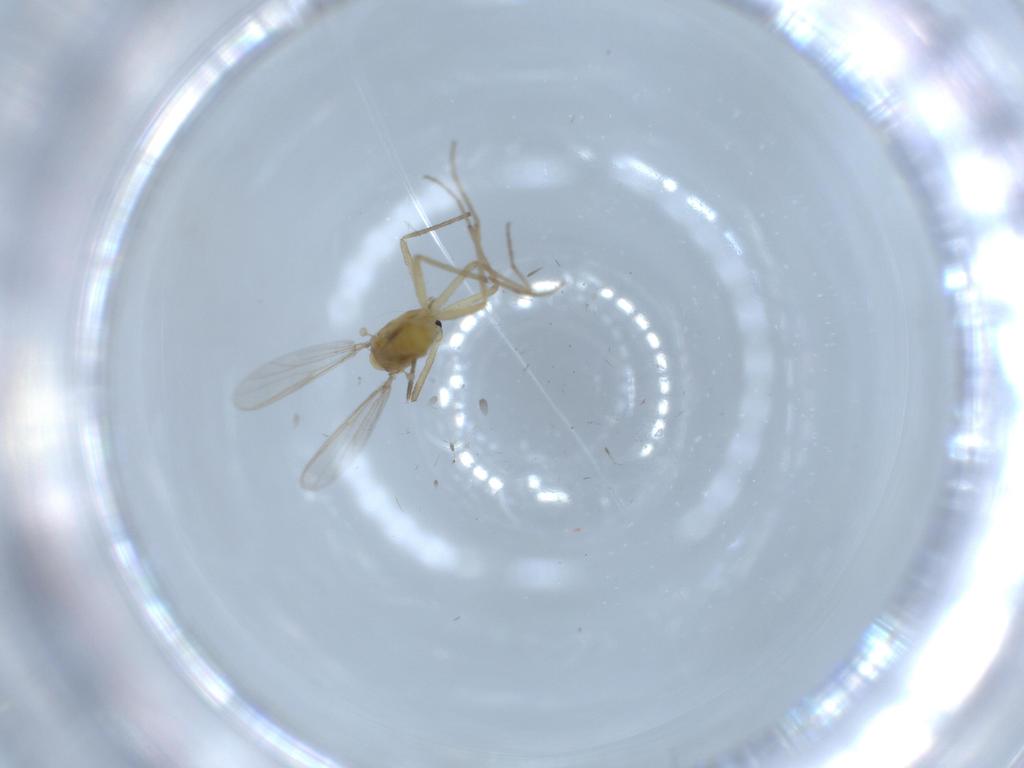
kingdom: Animalia
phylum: Arthropoda
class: Insecta
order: Diptera
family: Chironomidae
